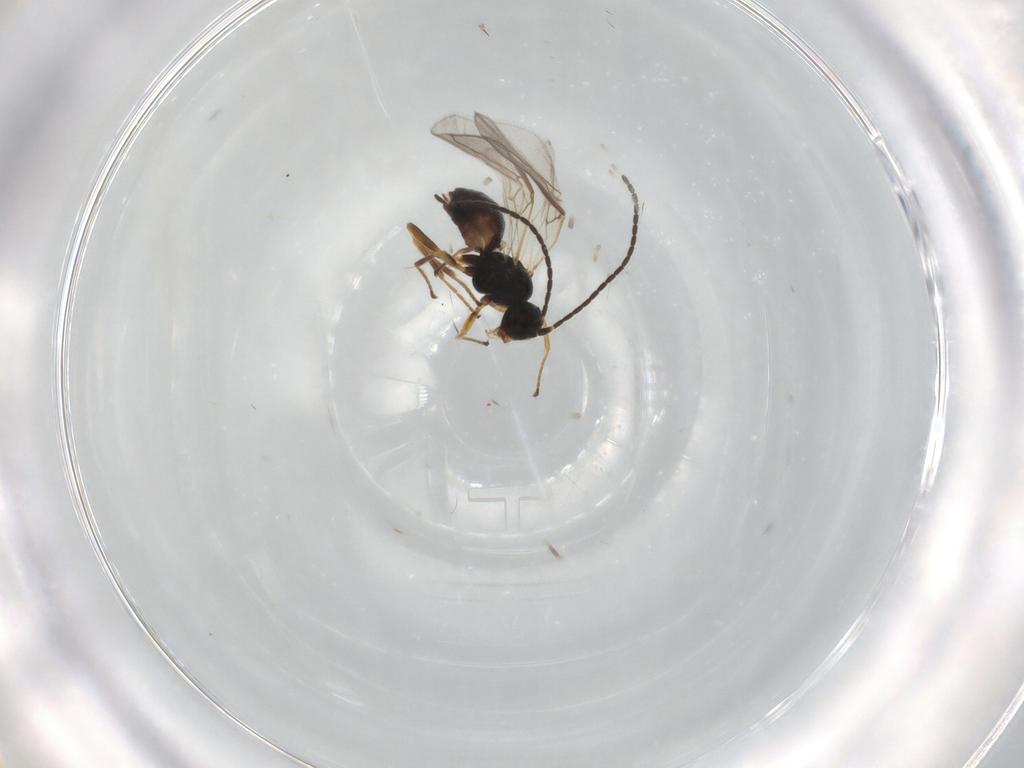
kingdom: Animalia
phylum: Arthropoda
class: Insecta
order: Hymenoptera
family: Braconidae
